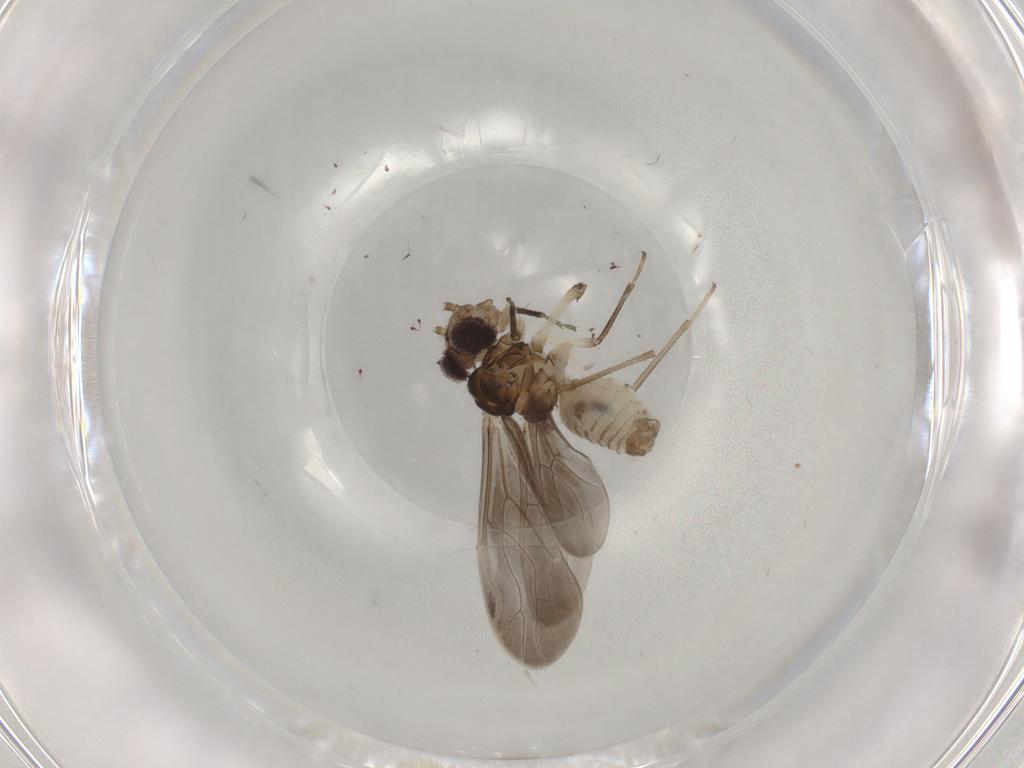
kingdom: Animalia
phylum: Arthropoda
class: Insecta
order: Psocodea
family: Caeciliusidae
